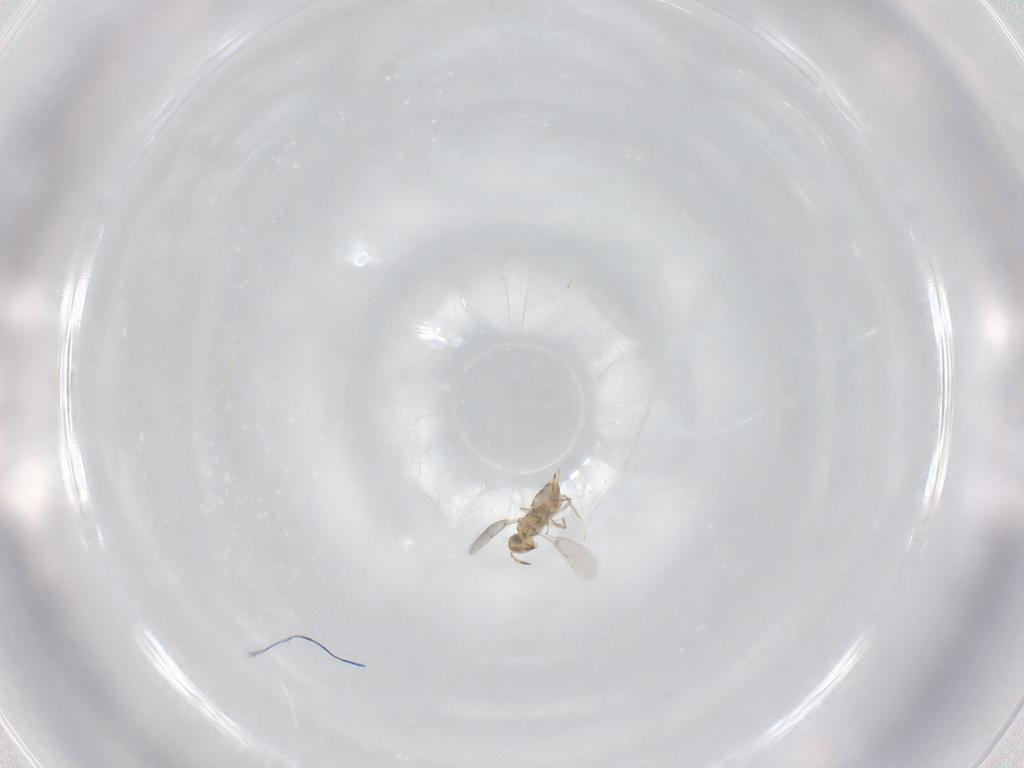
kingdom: Animalia
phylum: Arthropoda
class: Insecta
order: Hymenoptera
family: Aphelinidae
